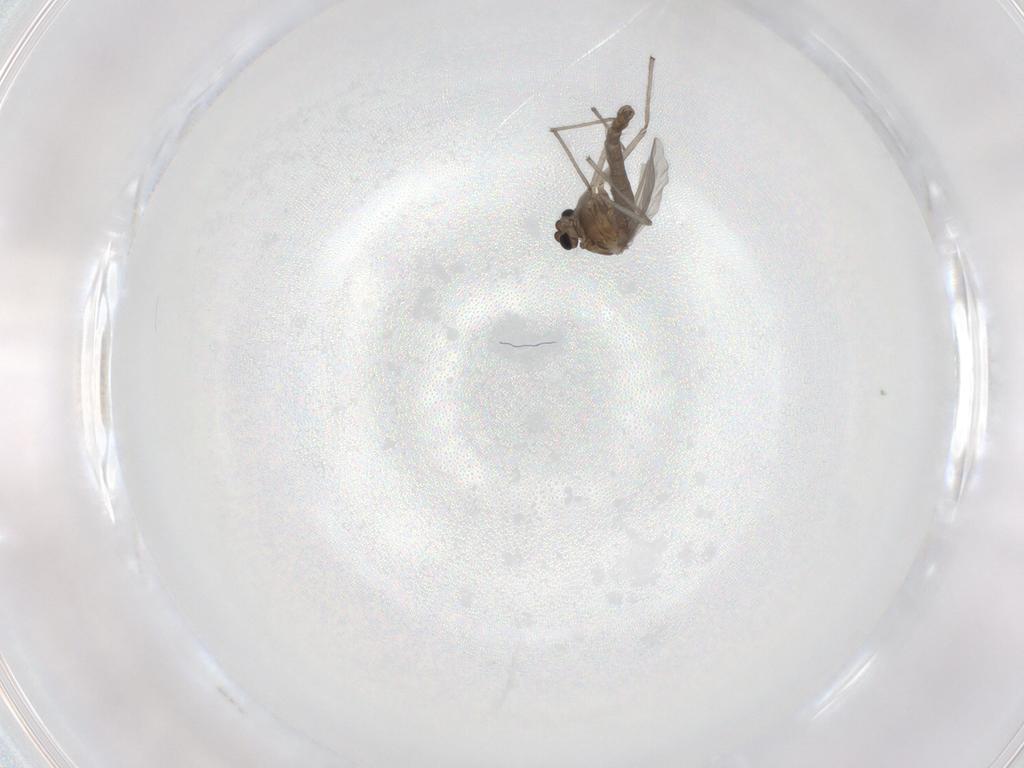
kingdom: Animalia
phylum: Arthropoda
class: Insecta
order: Diptera
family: Chironomidae
